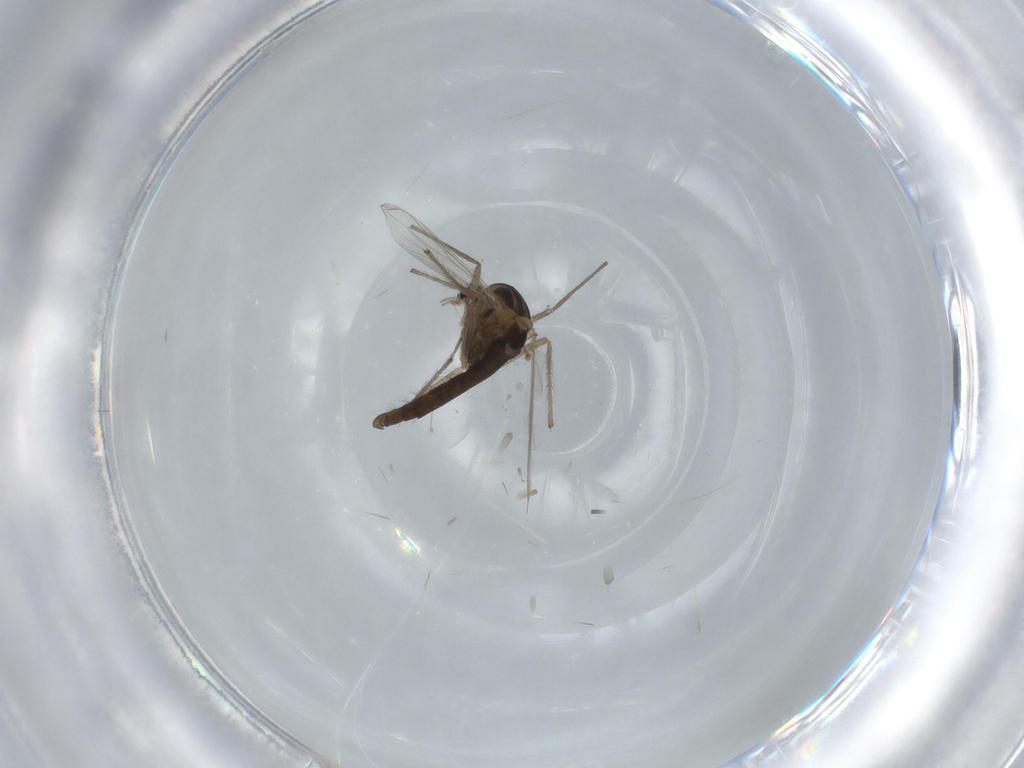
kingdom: Animalia
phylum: Arthropoda
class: Insecta
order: Diptera
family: Chironomidae
